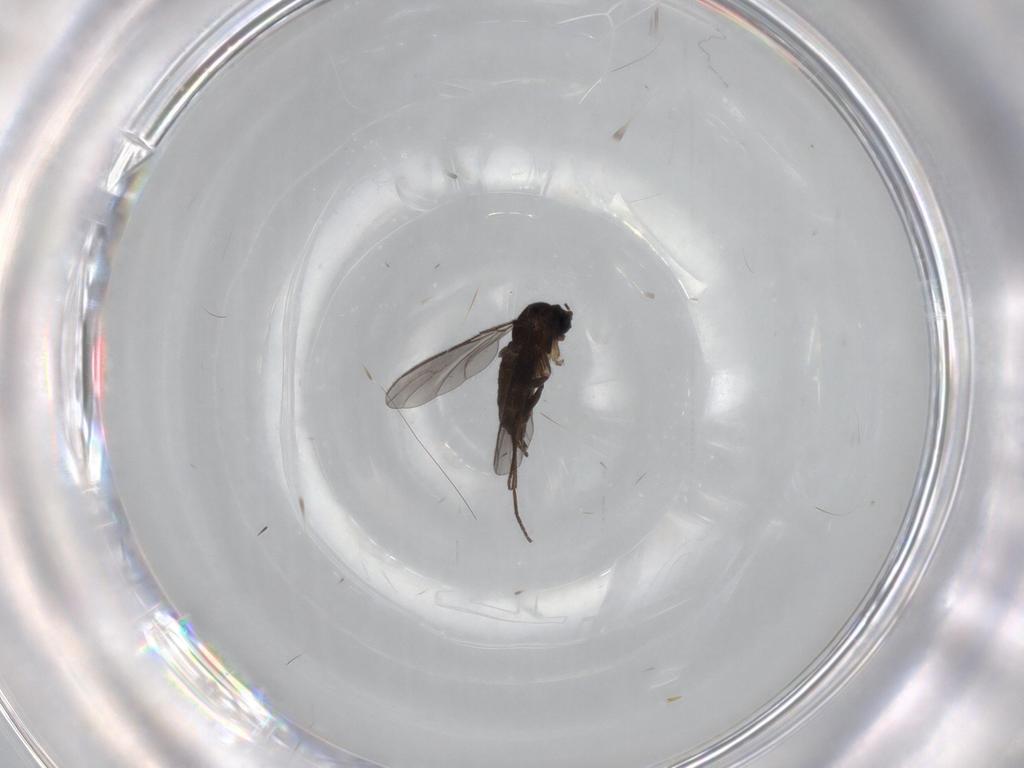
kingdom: Animalia
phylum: Arthropoda
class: Insecta
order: Diptera
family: Sciaridae
